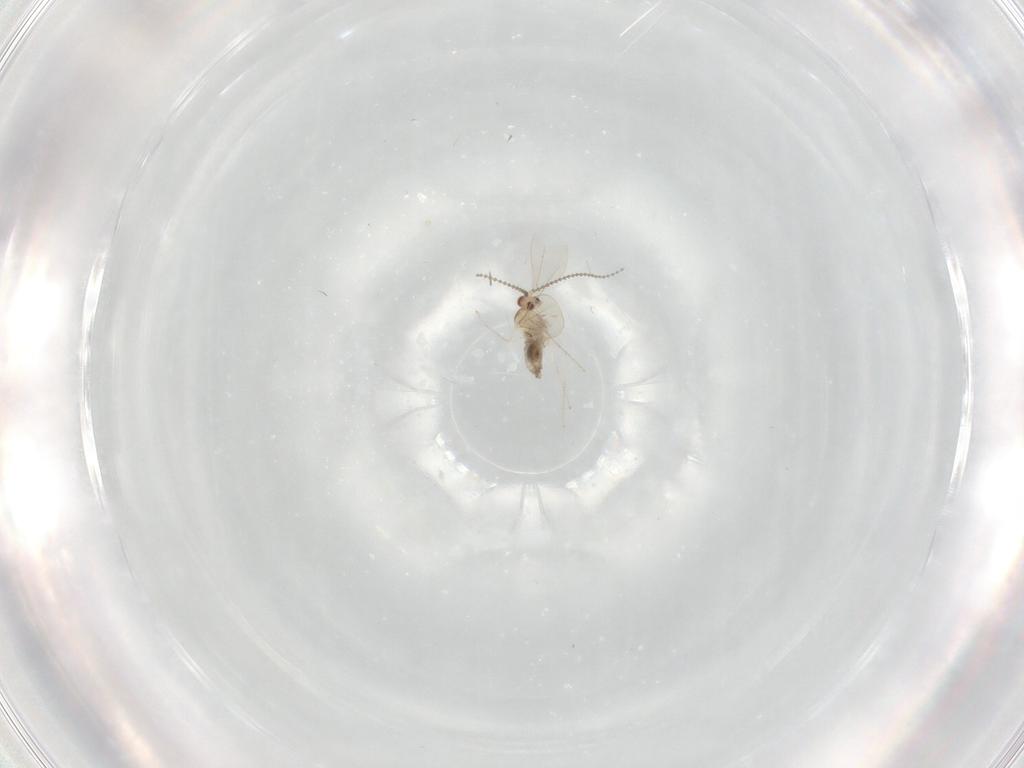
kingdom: Animalia
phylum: Arthropoda
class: Insecta
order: Diptera
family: Cecidomyiidae
